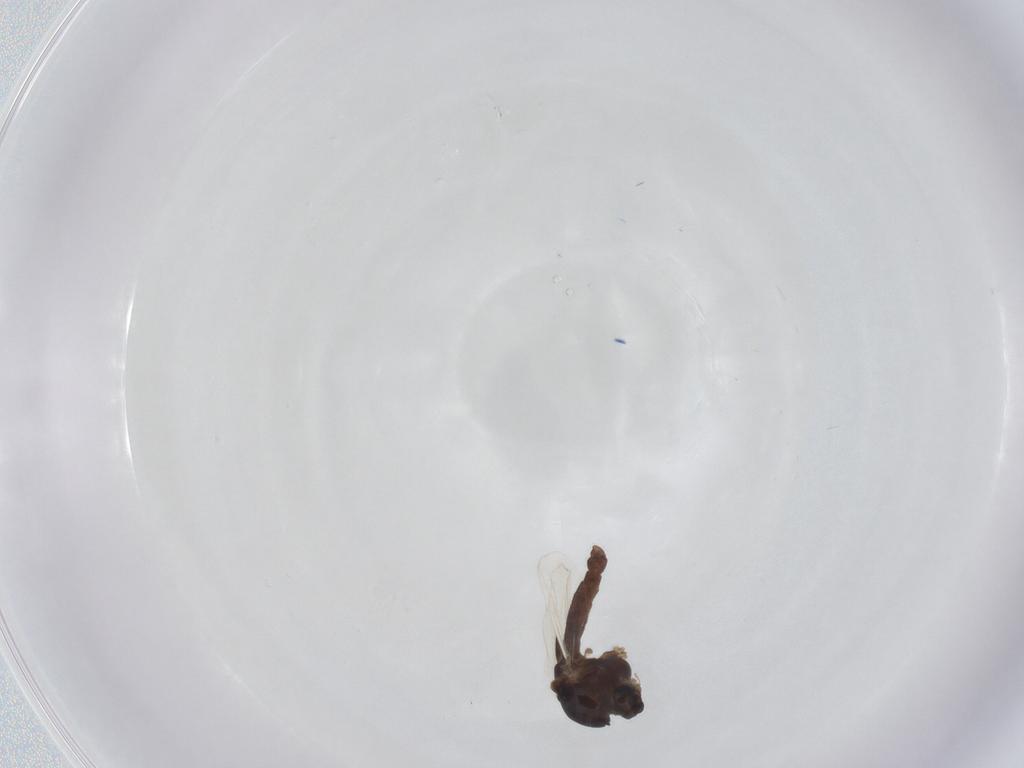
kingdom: Animalia
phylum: Arthropoda
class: Insecta
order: Diptera
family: Chironomidae
